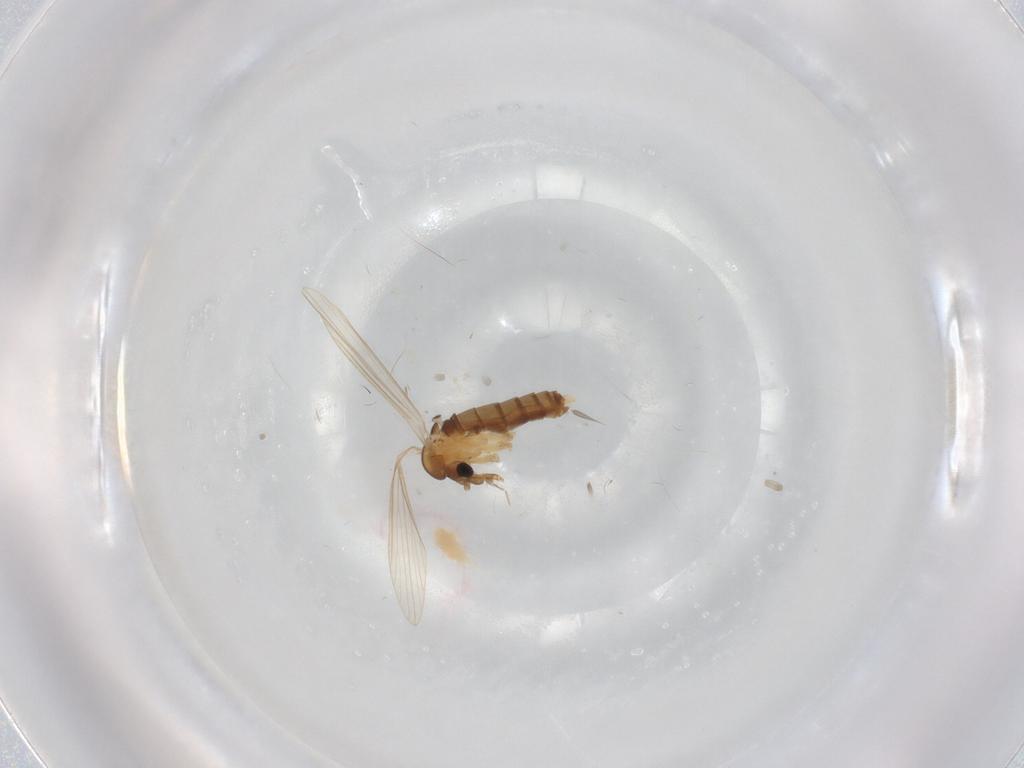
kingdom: Animalia
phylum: Arthropoda
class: Insecta
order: Diptera
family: Psychodidae
